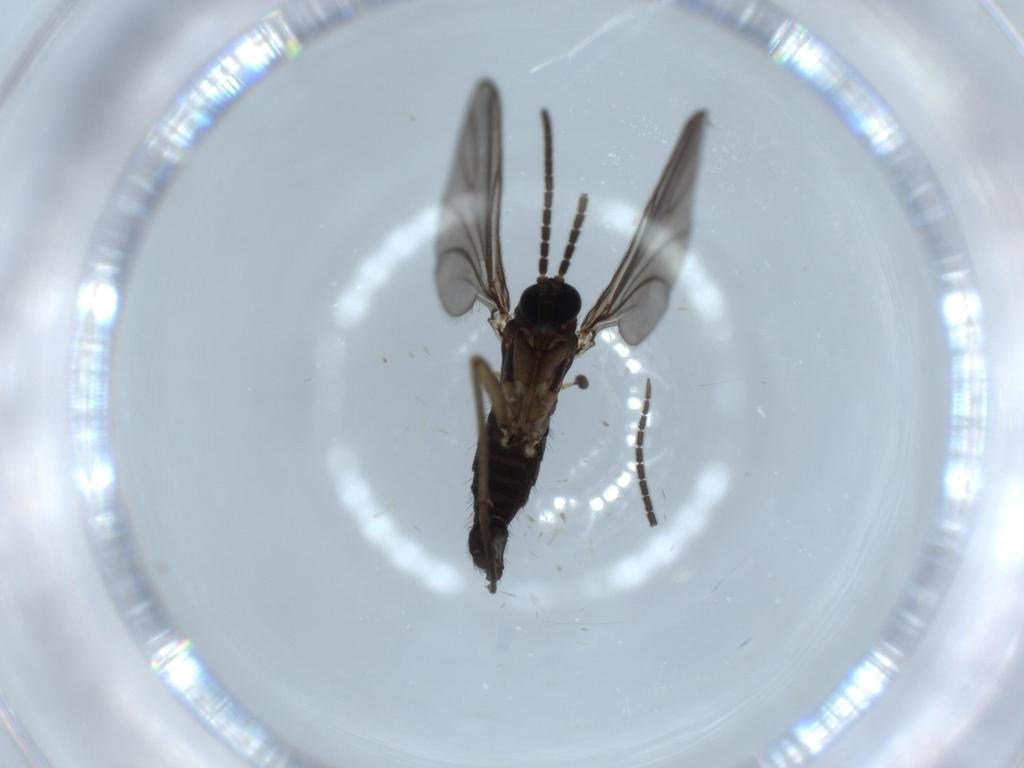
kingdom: Animalia
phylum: Arthropoda
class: Insecta
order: Diptera
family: Sciaridae
